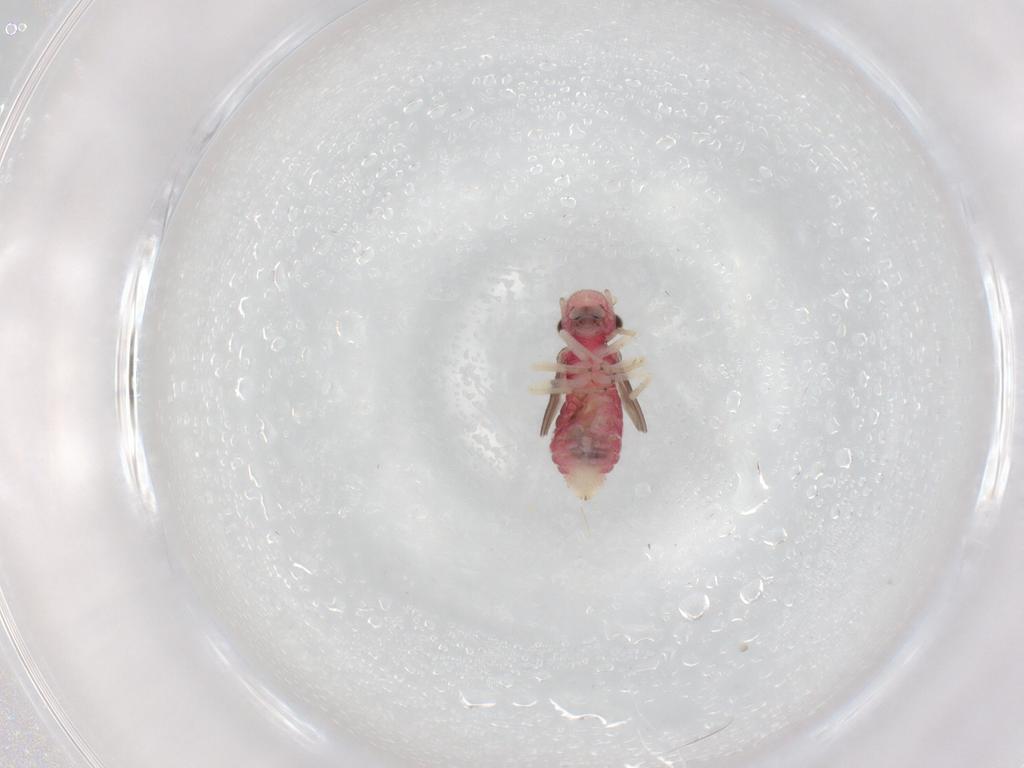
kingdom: Animalia
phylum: Arthropoda
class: Insecta
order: Psocodea
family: Caeciliusidae
